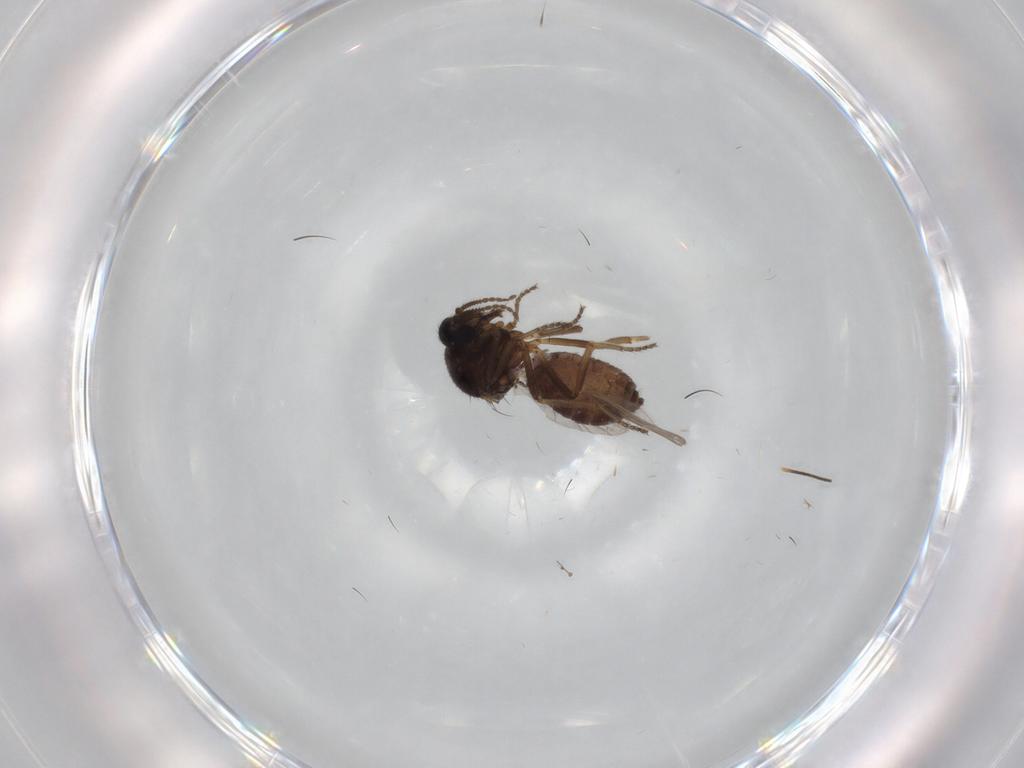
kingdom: Animalia
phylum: Arthropoda
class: Insecta
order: Diptera
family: Ceratopogonidae
